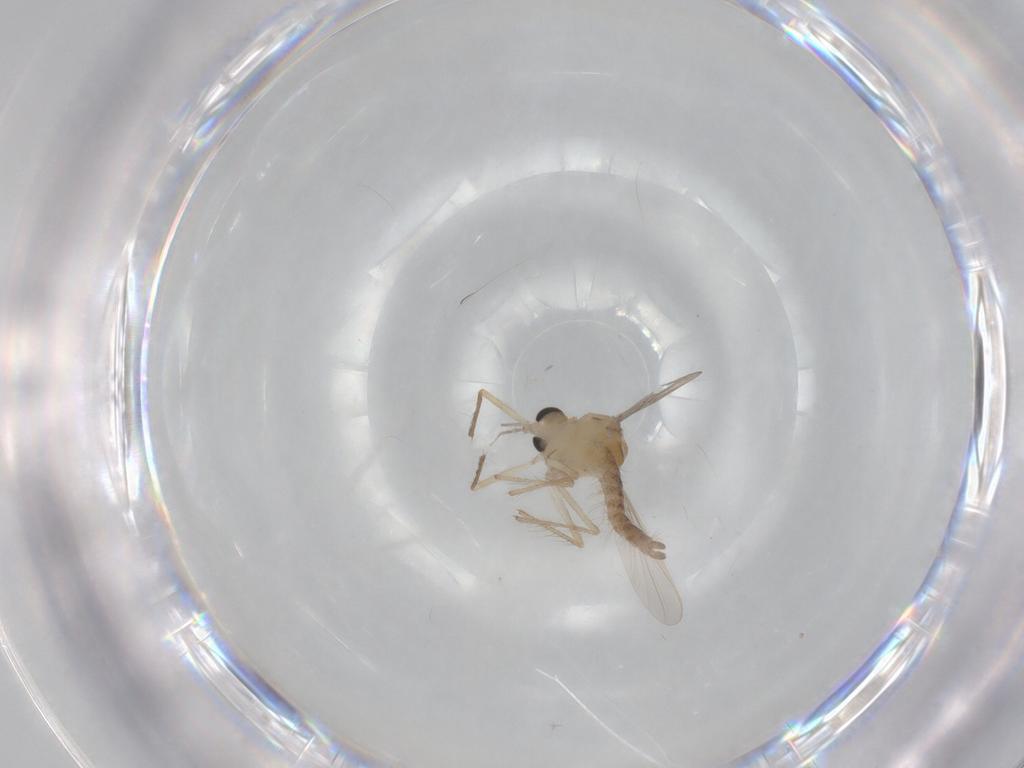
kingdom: Animalia
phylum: Arthropoda
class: Insecta
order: Diptera
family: Chironomidae
